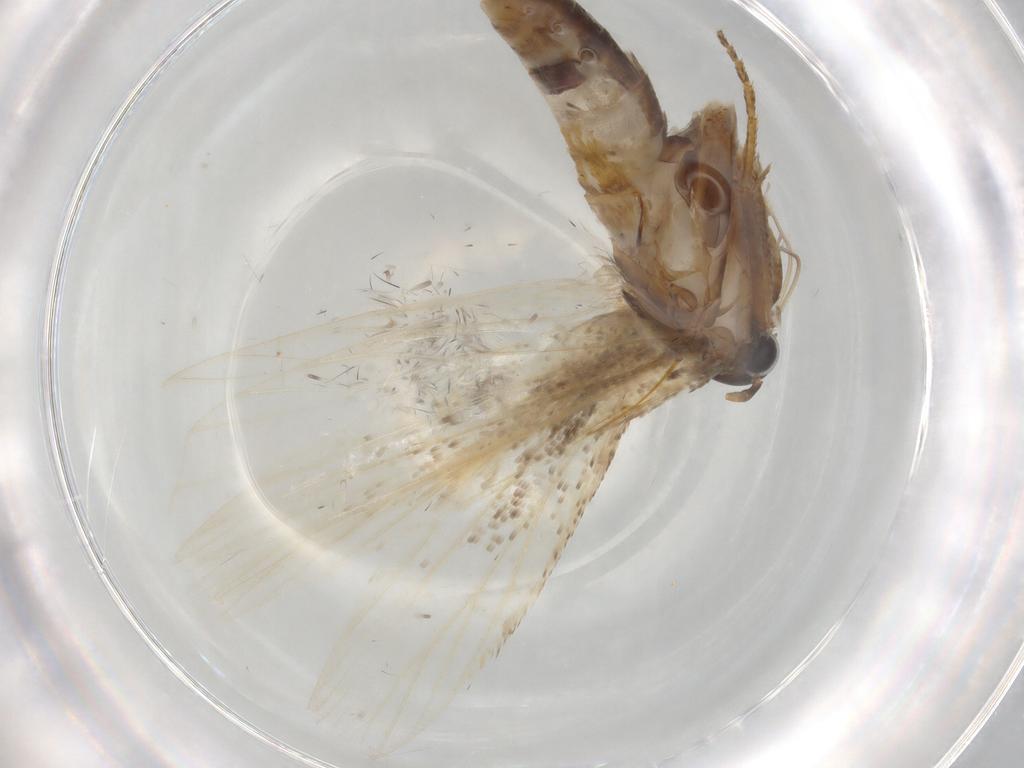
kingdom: Animalia
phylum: Arthropoda
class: Insecta
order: Lepidoptera
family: Gelechiidae
